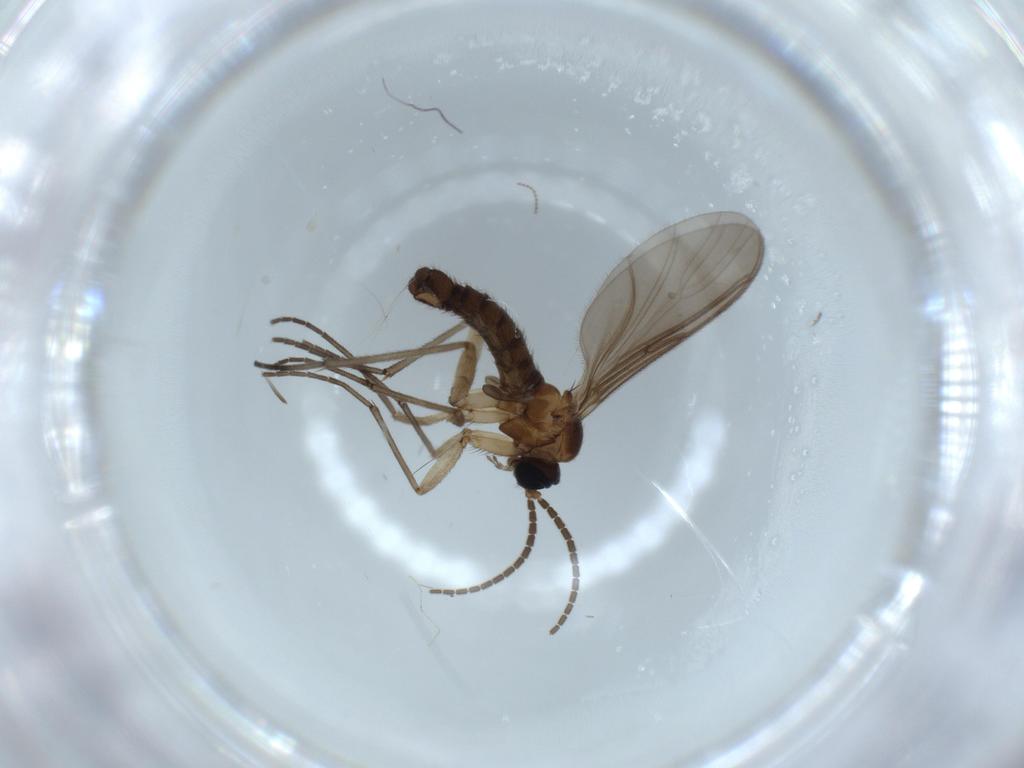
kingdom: Animalia
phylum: Arthropoda
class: Insecta
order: Diptera
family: Sciaridae
